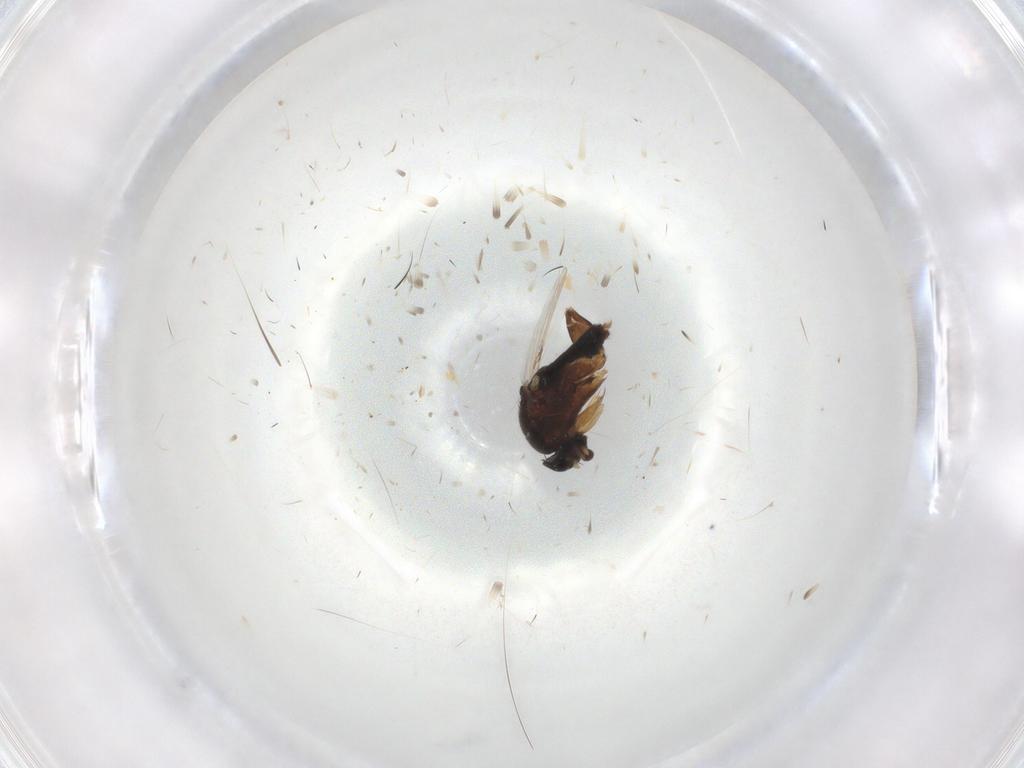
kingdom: Animalia
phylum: Arthropoda
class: Insecta
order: Diptera
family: Phoridae
